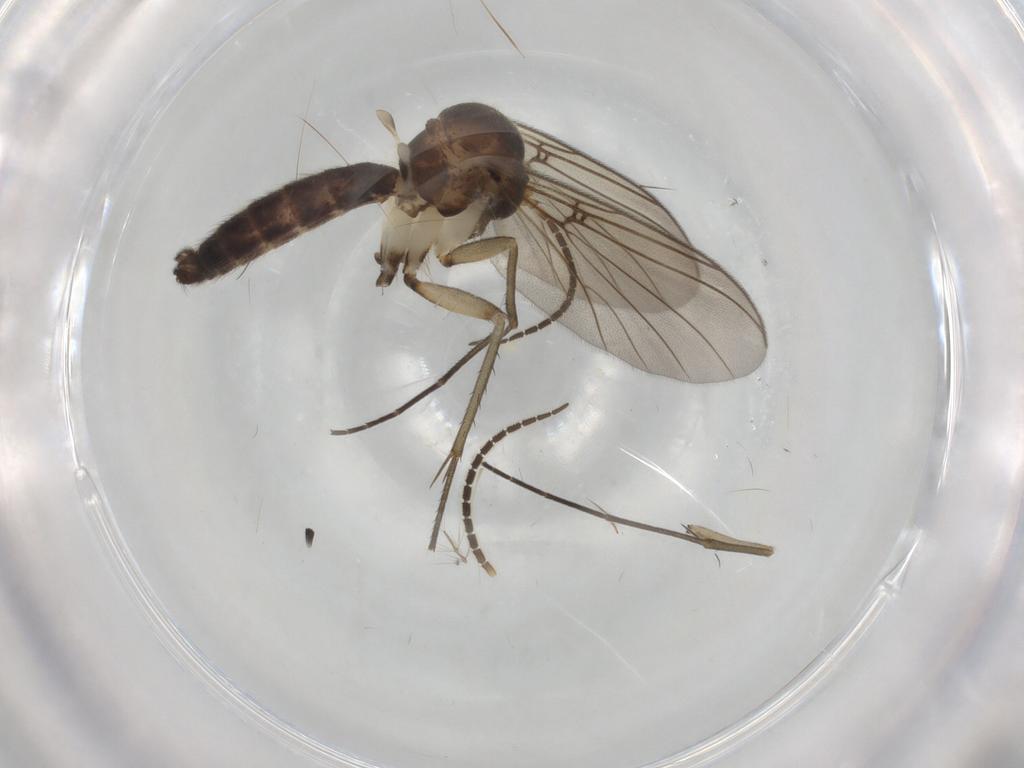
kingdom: Animalia
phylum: Arthropoda
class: Insecta
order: Diptera
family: Mycetophilidae
